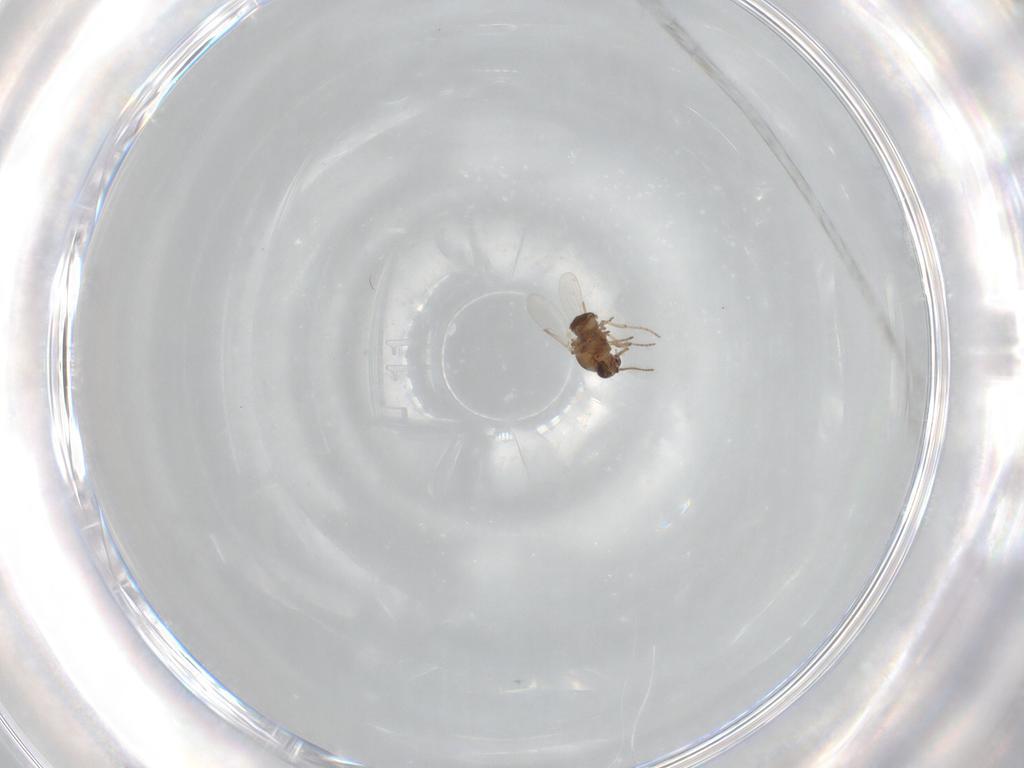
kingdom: Animalia
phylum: Arthropoda
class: Insecta
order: Diptera
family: Ceratopogonidae
